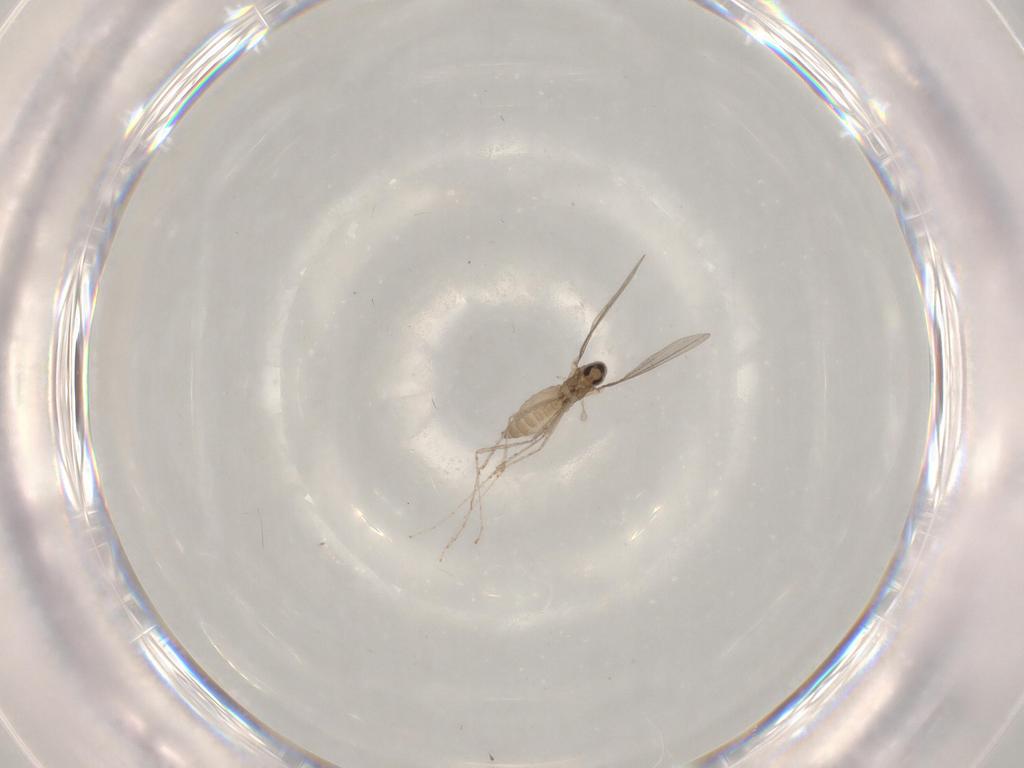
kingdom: Animalia
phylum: Arthropoda
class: Insecta
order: Diptera
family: Cecidomyiidae
